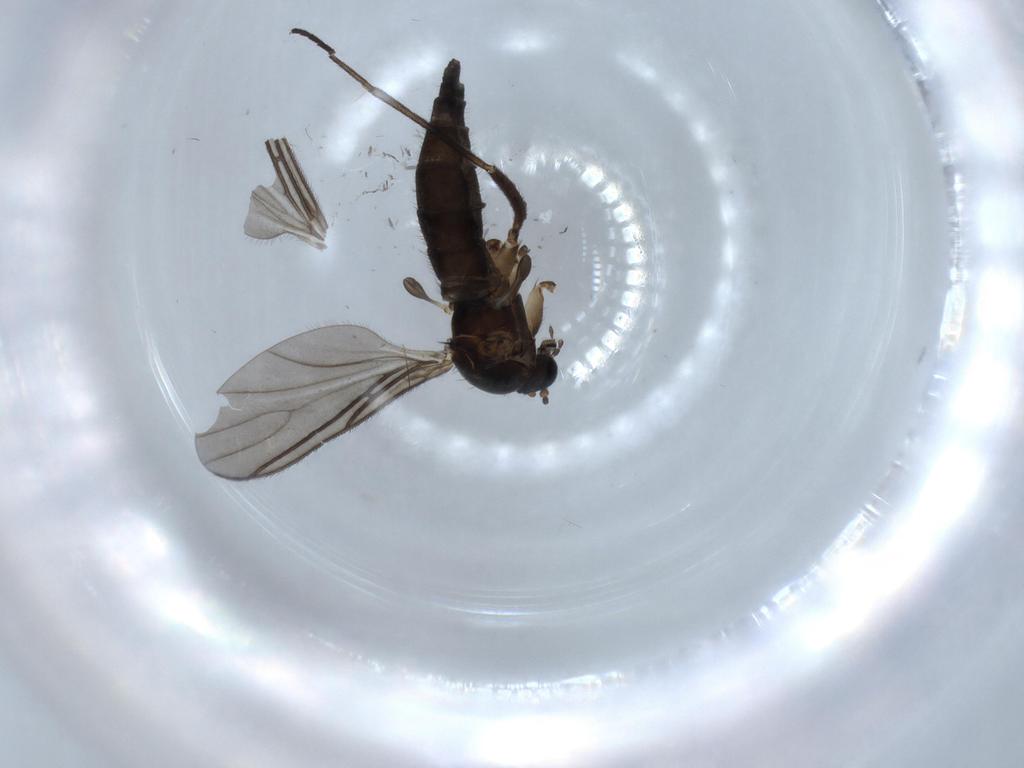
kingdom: Animalia
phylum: Arthropoda
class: Insecta
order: Diptera
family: Sciaridae
